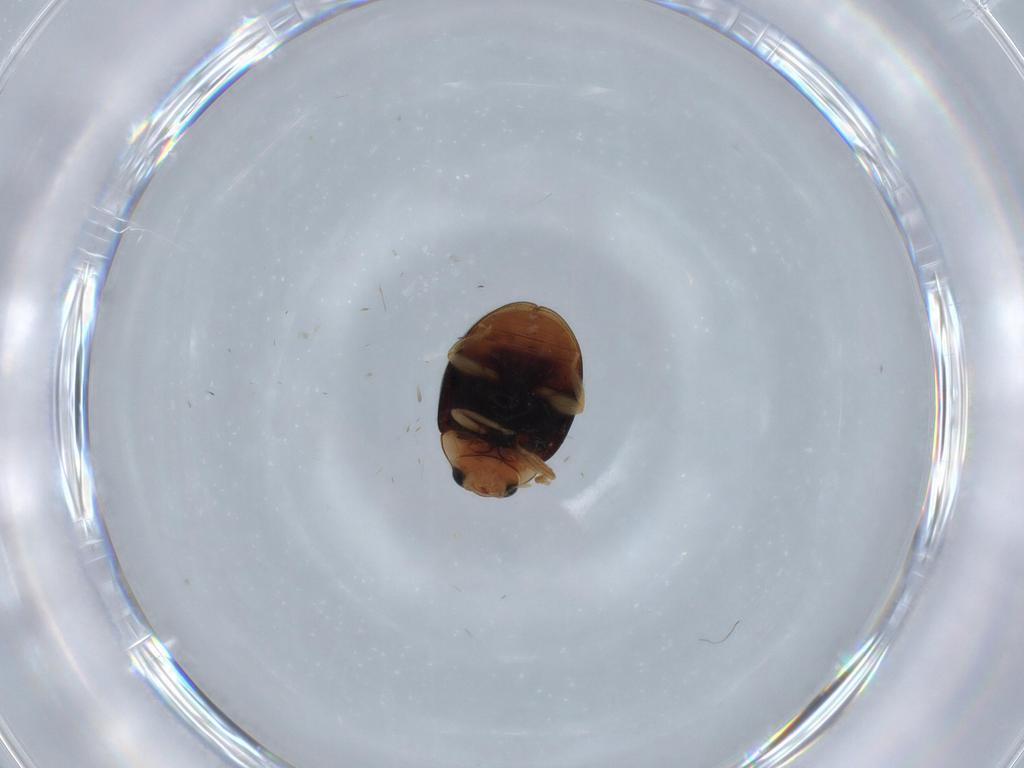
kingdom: Animalia
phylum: Arthropoda
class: Insecta
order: Coleoptera
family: Coccinellidae
